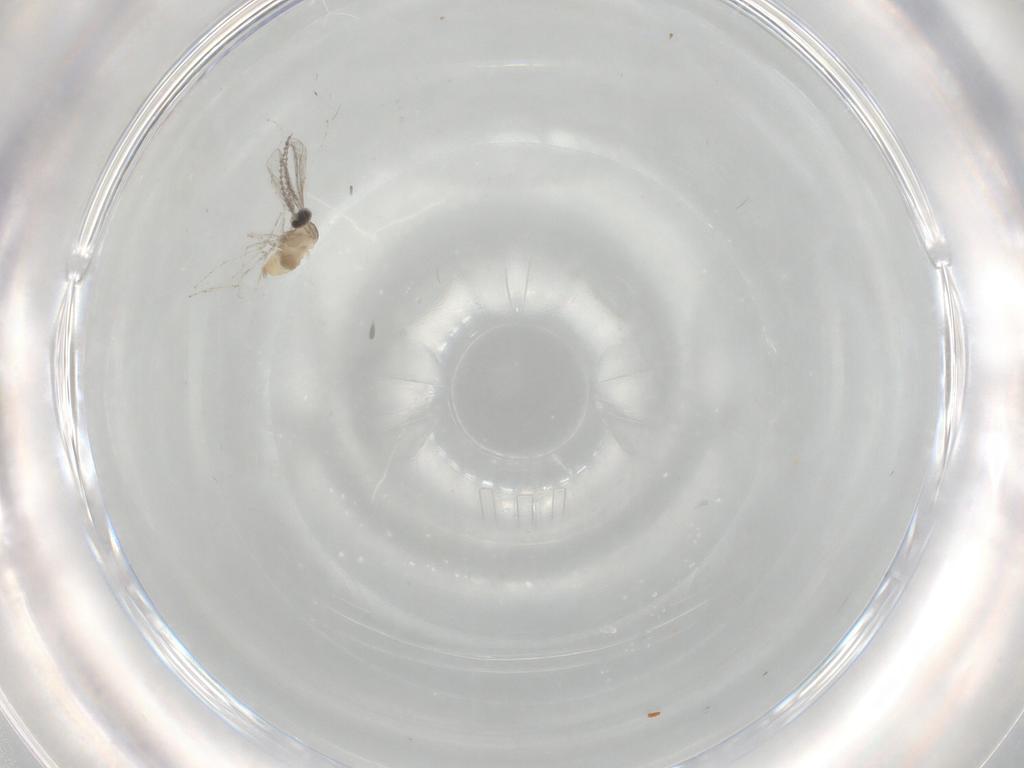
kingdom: Animalia
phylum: Arthropoda
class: Insecta
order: Diptera
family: Cecidomyiidae
